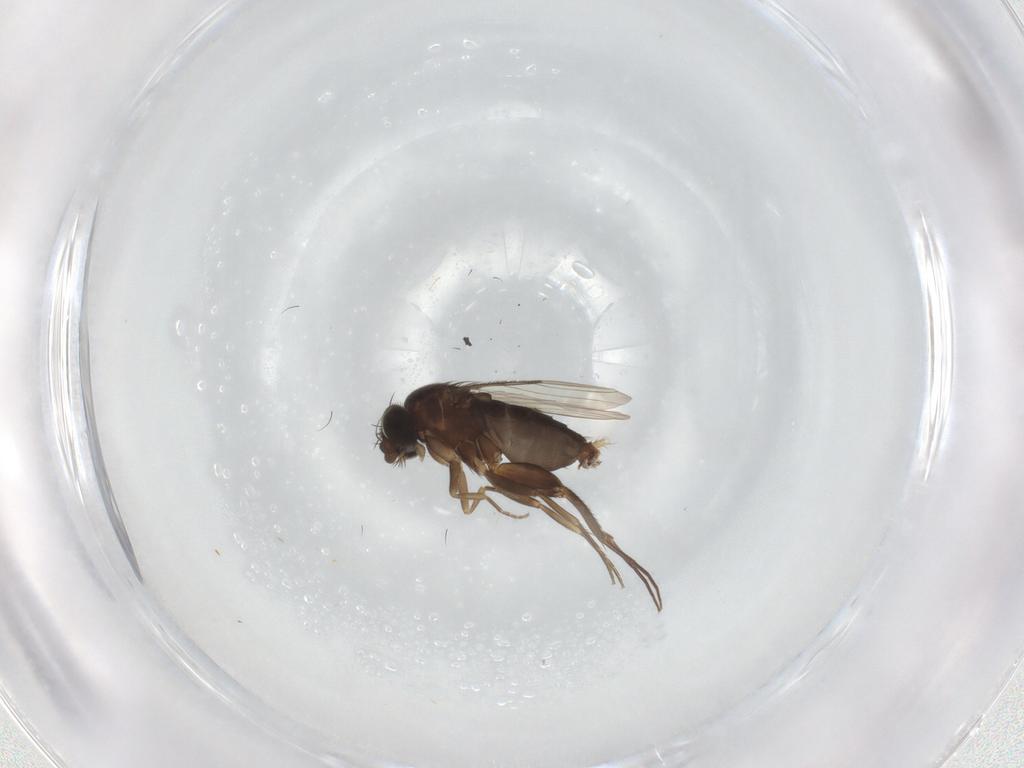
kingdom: Animalia
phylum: Arthropoda
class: Insecta
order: Diptera
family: Phoridae
